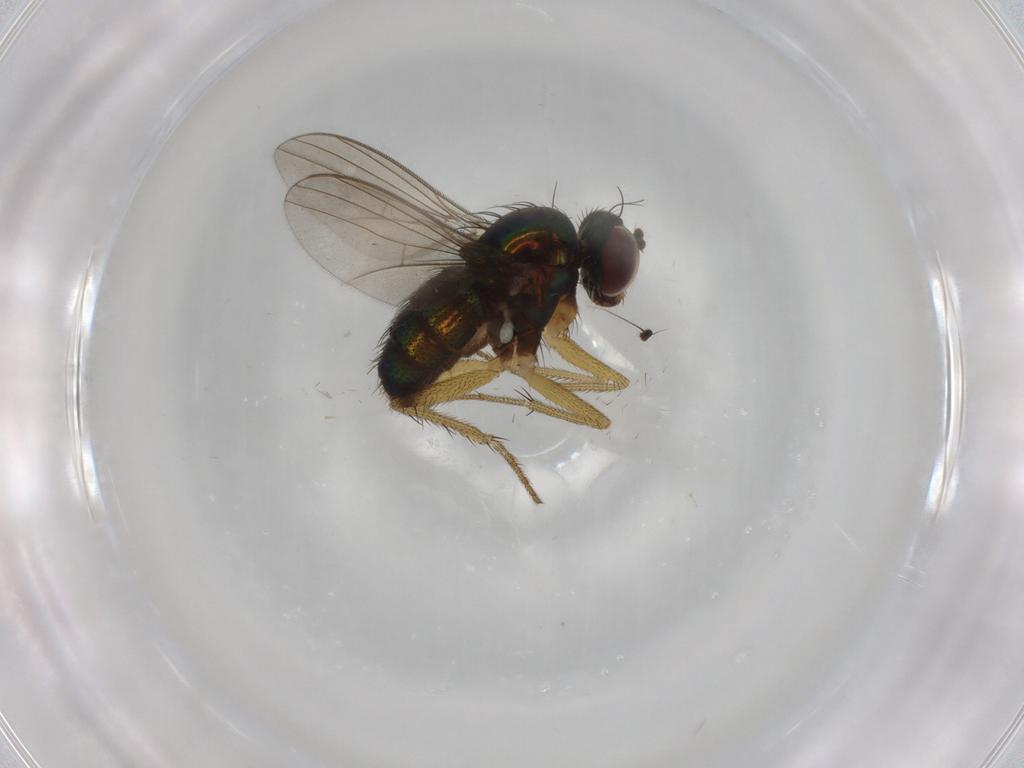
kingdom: Animalia
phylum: Arthropoda
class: Insecta
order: Diptera
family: Dolichopodidae
